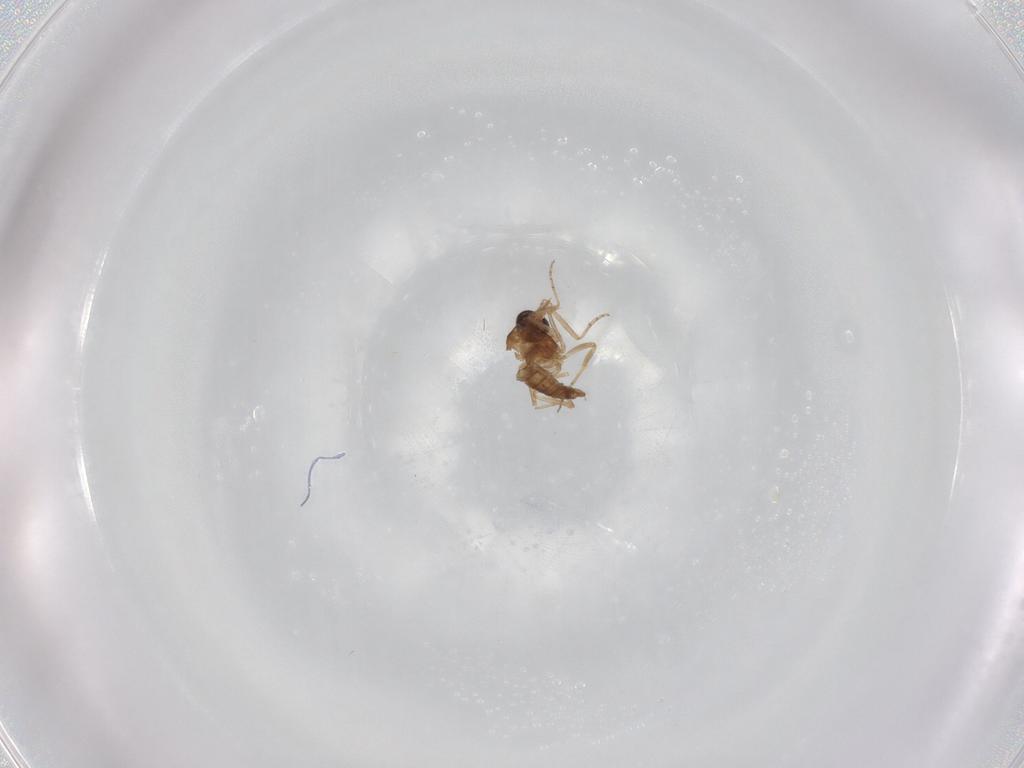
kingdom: Animalia
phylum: Arthropoda
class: Insecta
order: Diptera
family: Cecidomyiidae
